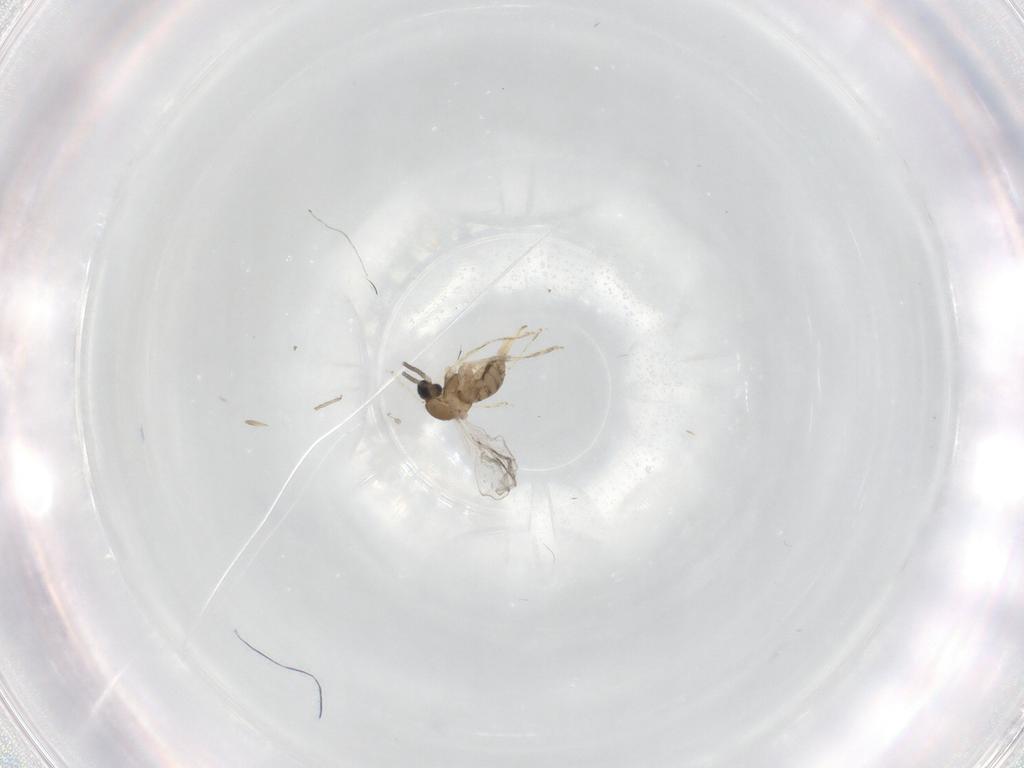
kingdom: Animalia
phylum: Arthropoda
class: Insecta
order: Diptera
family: Cecidomyiidae
